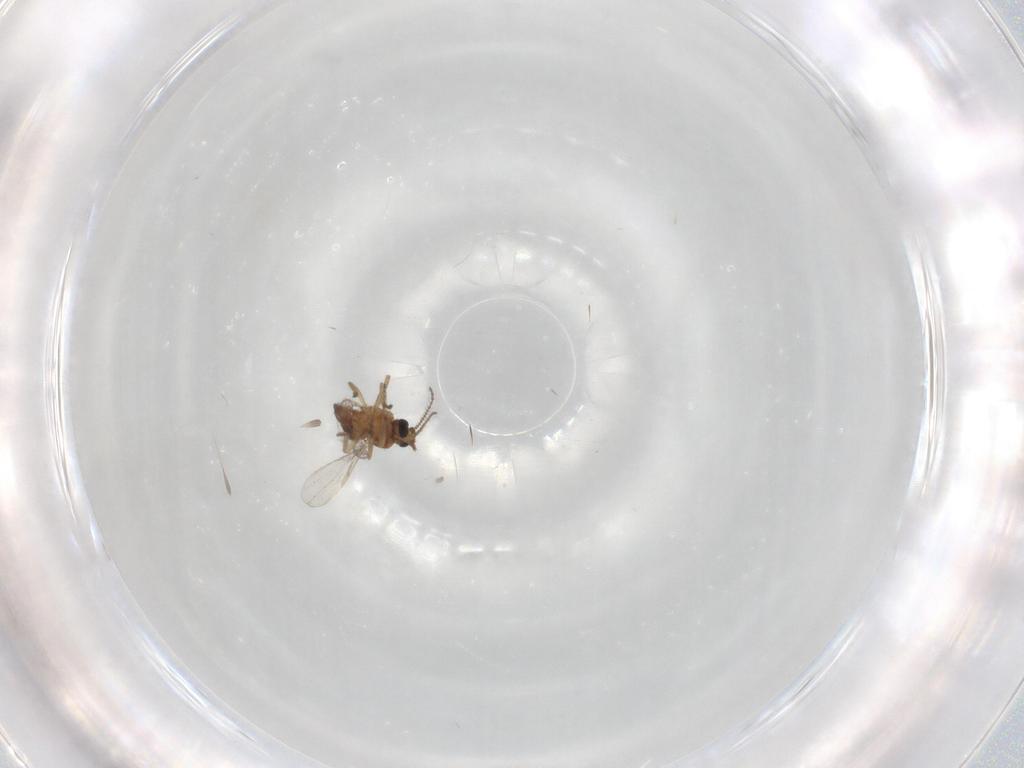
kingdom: Animalia
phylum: Arthropoda
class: Insecta
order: Diptera
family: Ceratopogonidae
